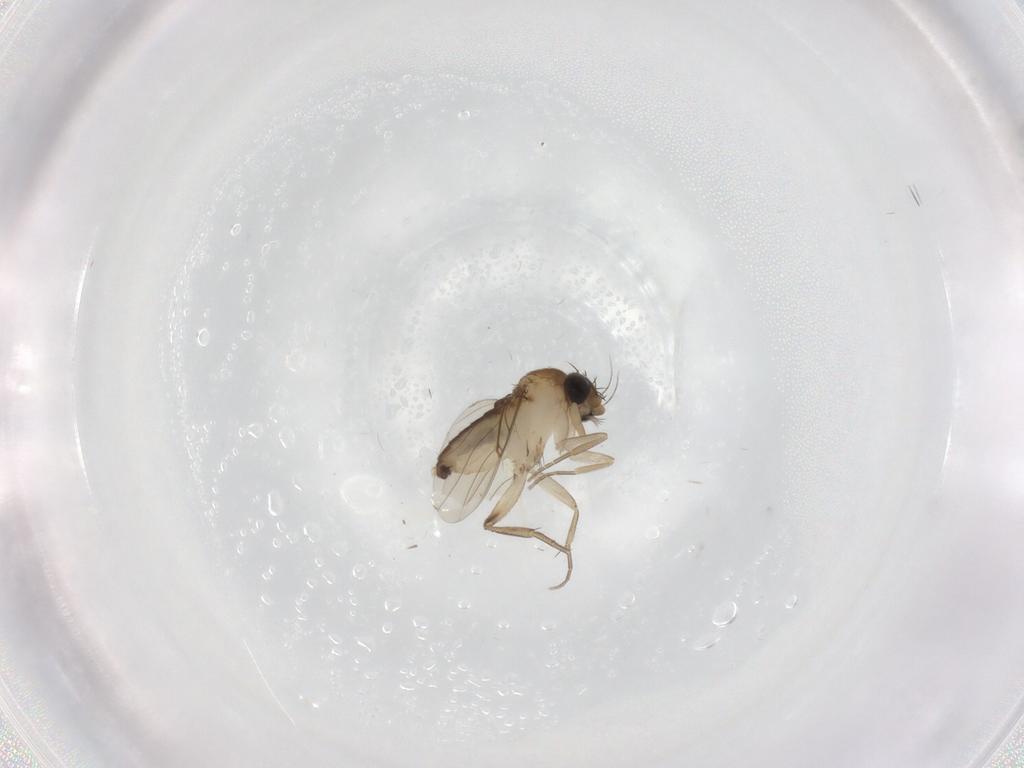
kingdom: Animalia
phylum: Arthropoda
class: Insecta
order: Diptera
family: Phoridae
